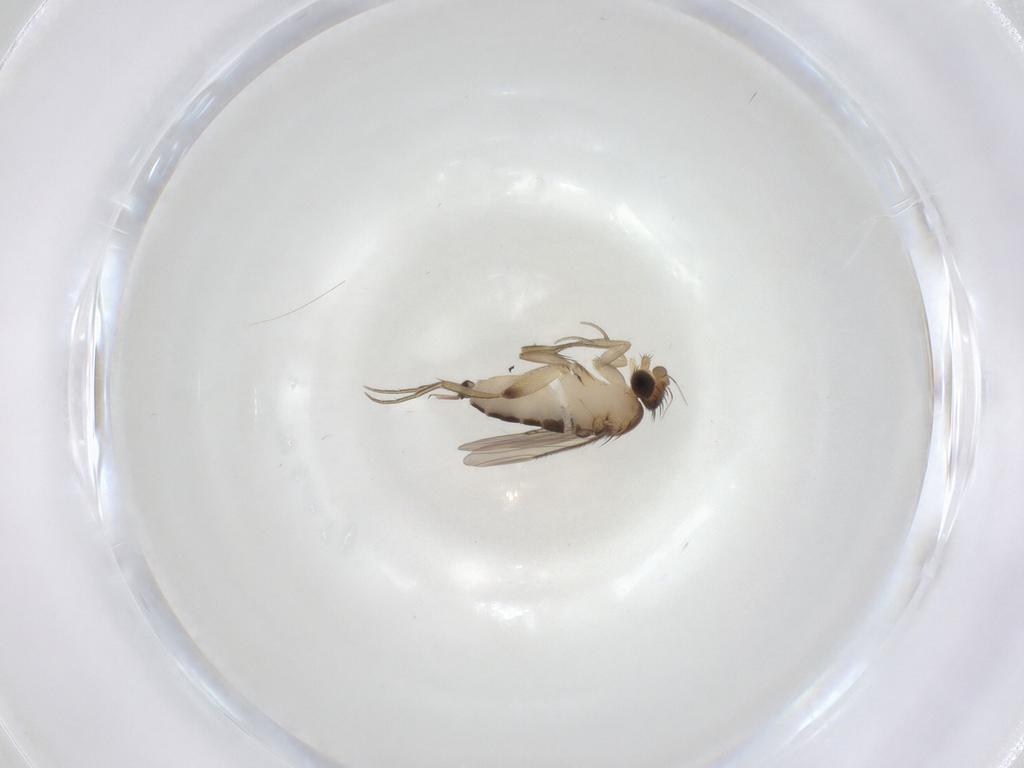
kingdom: Animalia
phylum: Arthropoda
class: Insecta
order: Diptera
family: Phoridae
